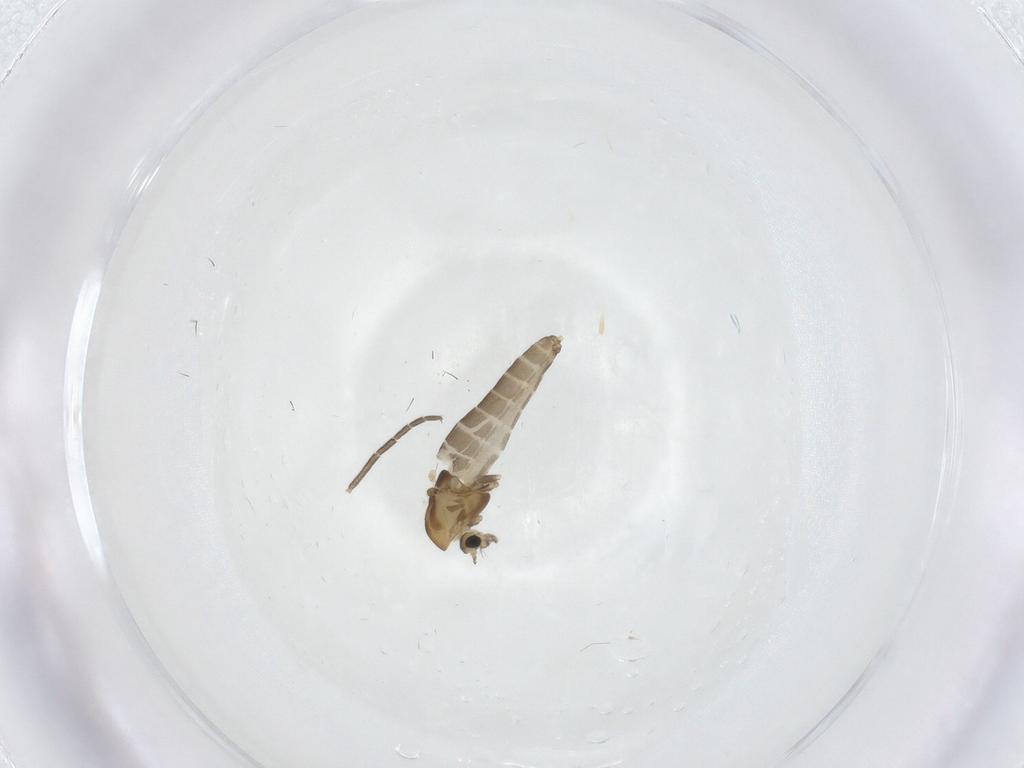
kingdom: Animalia
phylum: Arthropoda
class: Insecta
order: Diptera
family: Chironomidae
